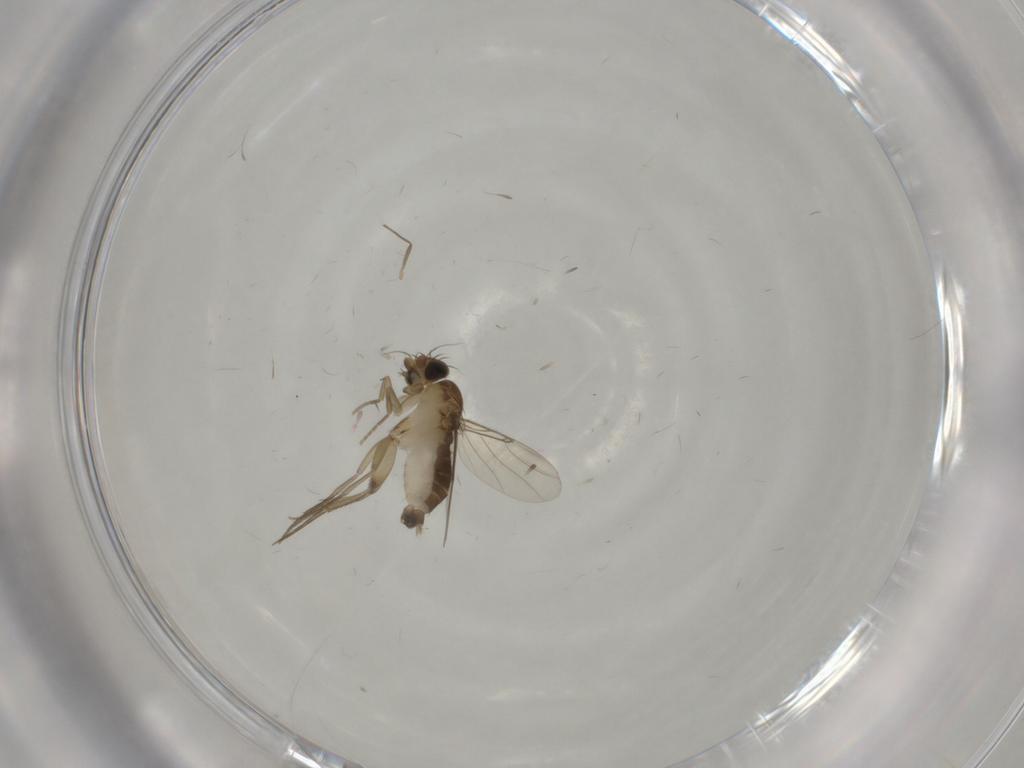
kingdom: Animalia
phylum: Arthropoda
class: Insecta
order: Diptera
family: Phoridae
